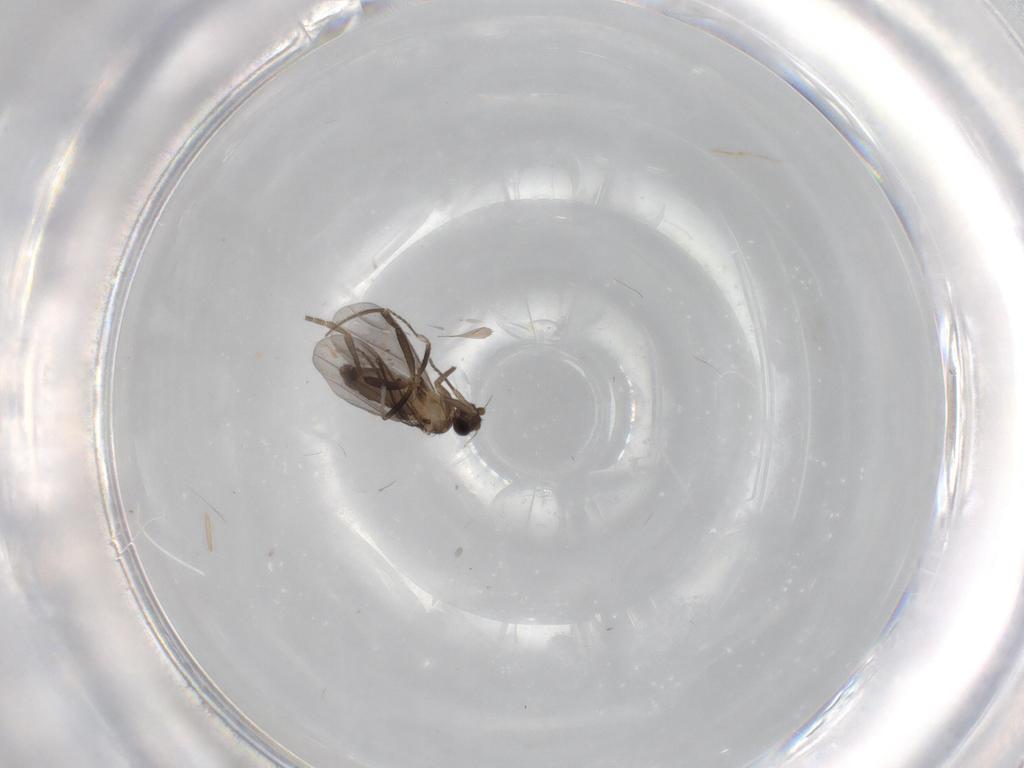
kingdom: Animalia
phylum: Arthropoda
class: Insecta
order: Diptera
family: Phoridae
